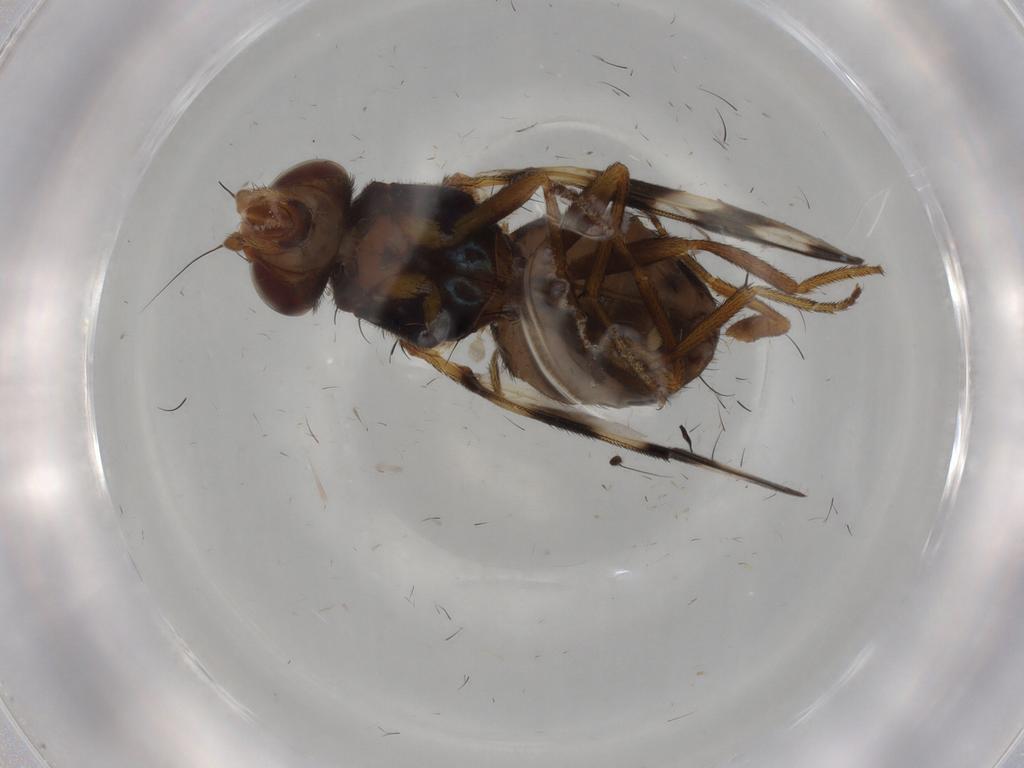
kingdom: Animalia
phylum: Arthropoda
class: Insecta
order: Diptera
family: Sciaridae
